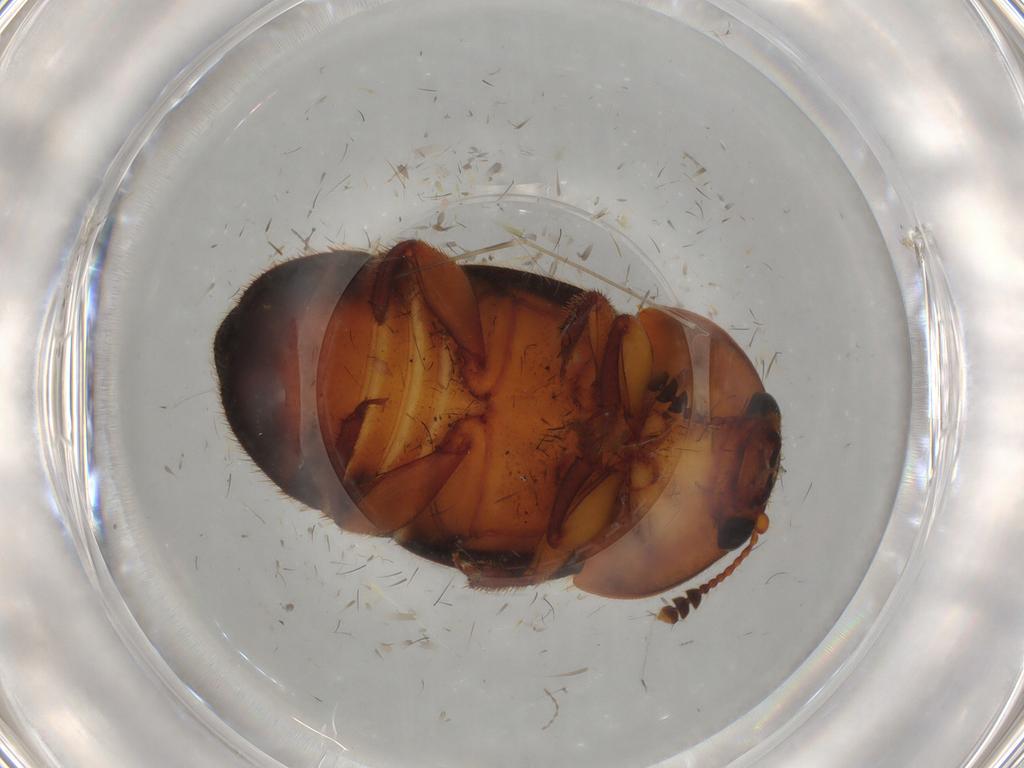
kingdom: Animalia
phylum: Arthropoda
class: Insecta
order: Coleoptera
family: Nitidulidae
